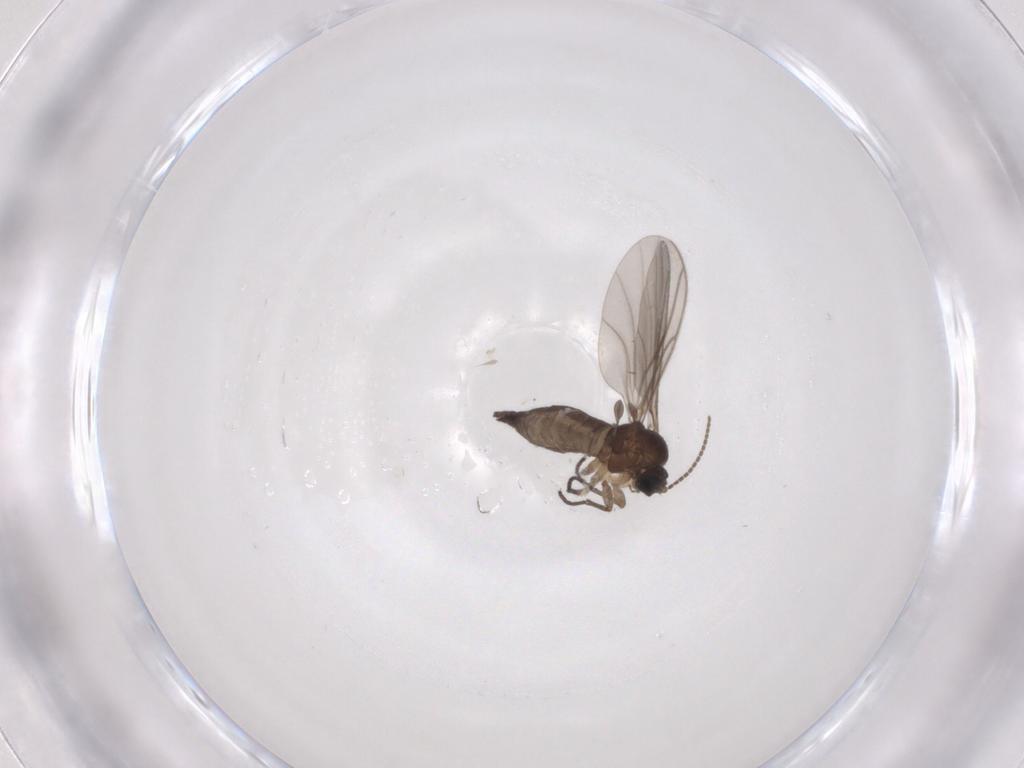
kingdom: Animalia
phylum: Arthropoda
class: Insecta
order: Diptera
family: Sciaridae
